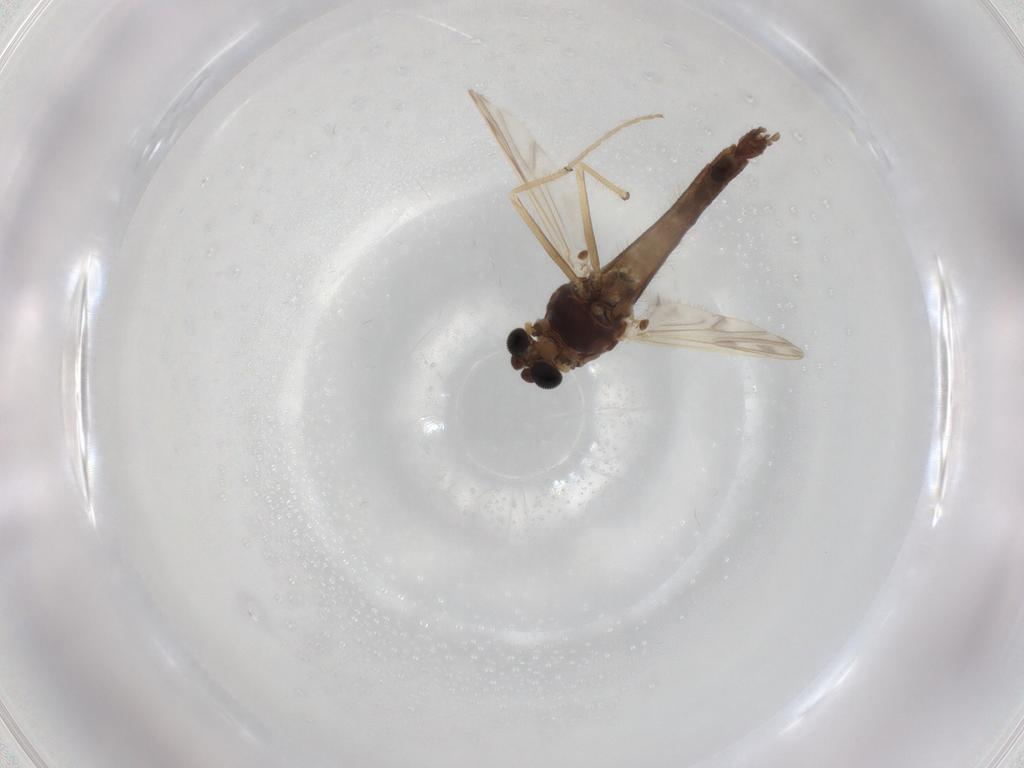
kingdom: Animalia
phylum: Arthropoda
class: Insecta
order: Diptera
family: Chironomidae
